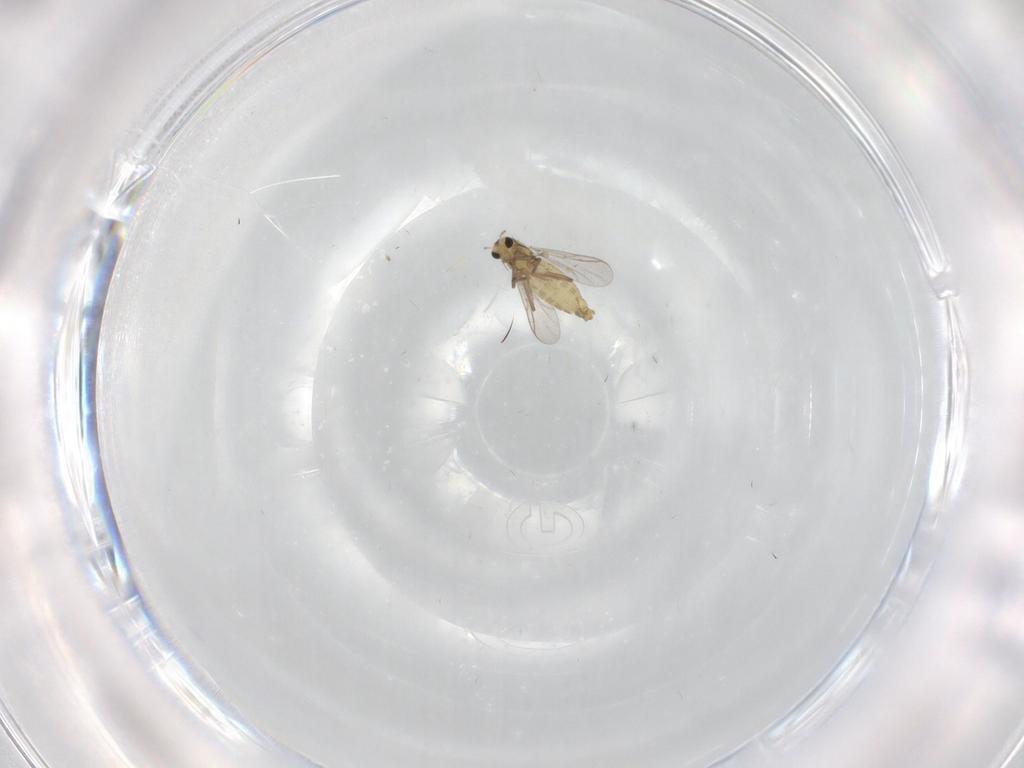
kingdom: Animalia
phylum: Arthropoda
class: Insecta
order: Diptera
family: Chironomidae
